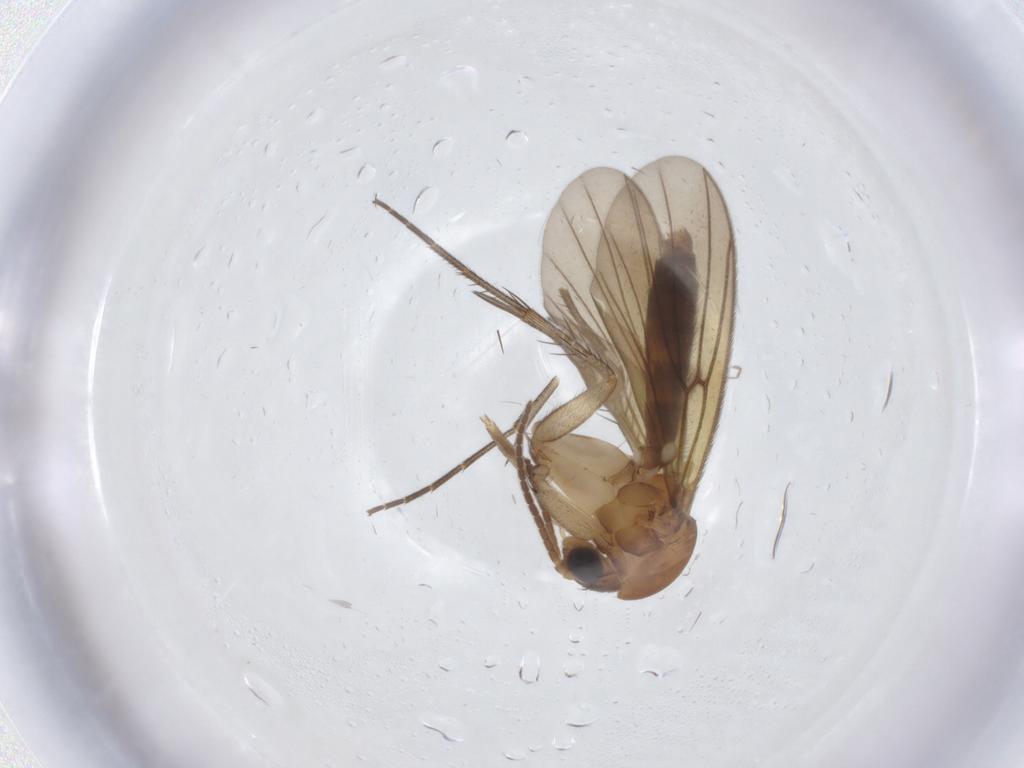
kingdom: Animalia
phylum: Arthropoda
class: Insecta
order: Diptera
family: Mycetophilidae
